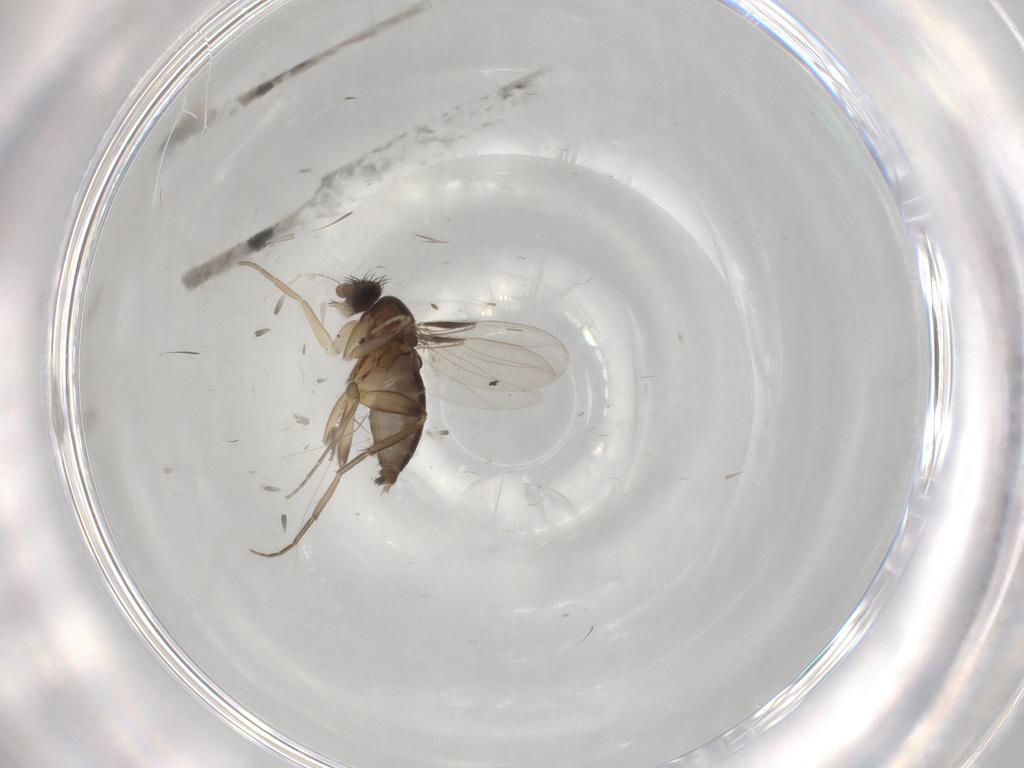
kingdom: Animalia
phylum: Arthropoda
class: Insecta
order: Diptera
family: Phoridae
